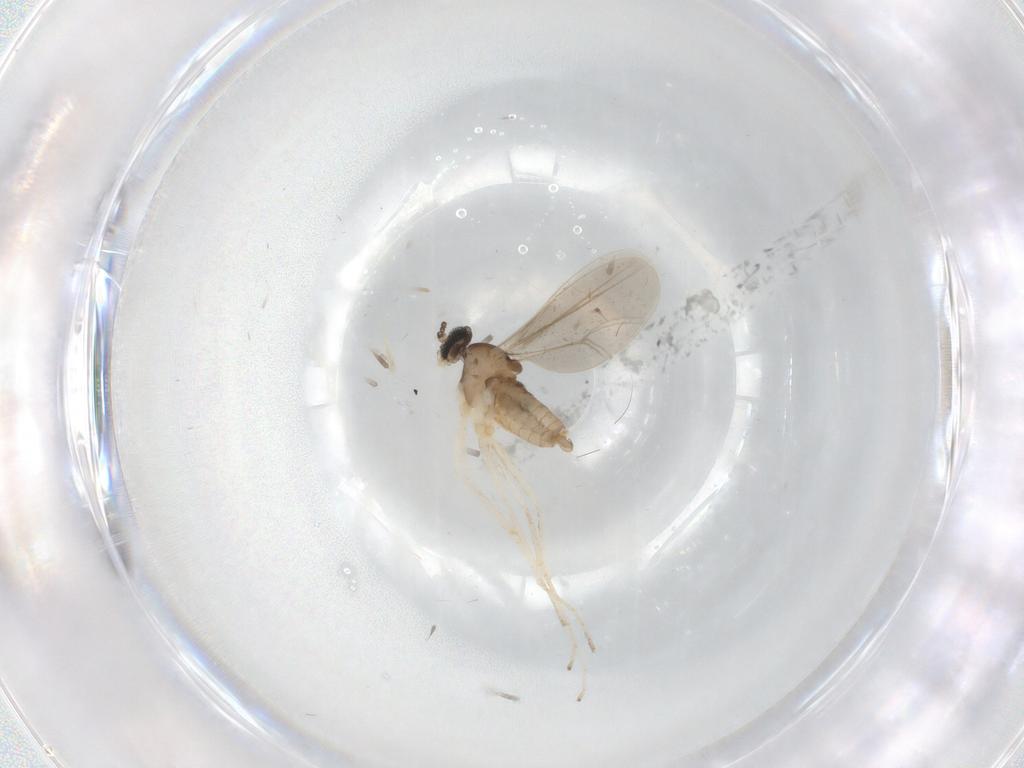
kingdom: Animalia
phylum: Arthropoda
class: Insecta
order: Diptera
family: Chironomidae
